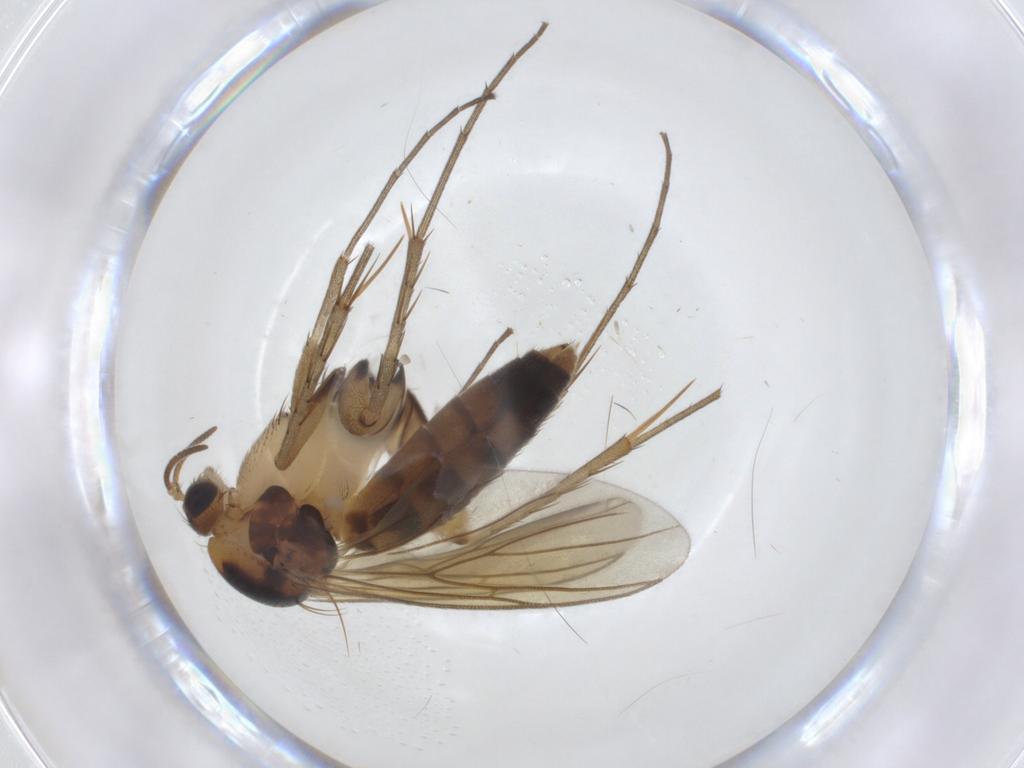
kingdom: Animalia
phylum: Arthropoda
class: Insecta
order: Diptera
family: Mycetophilidae
